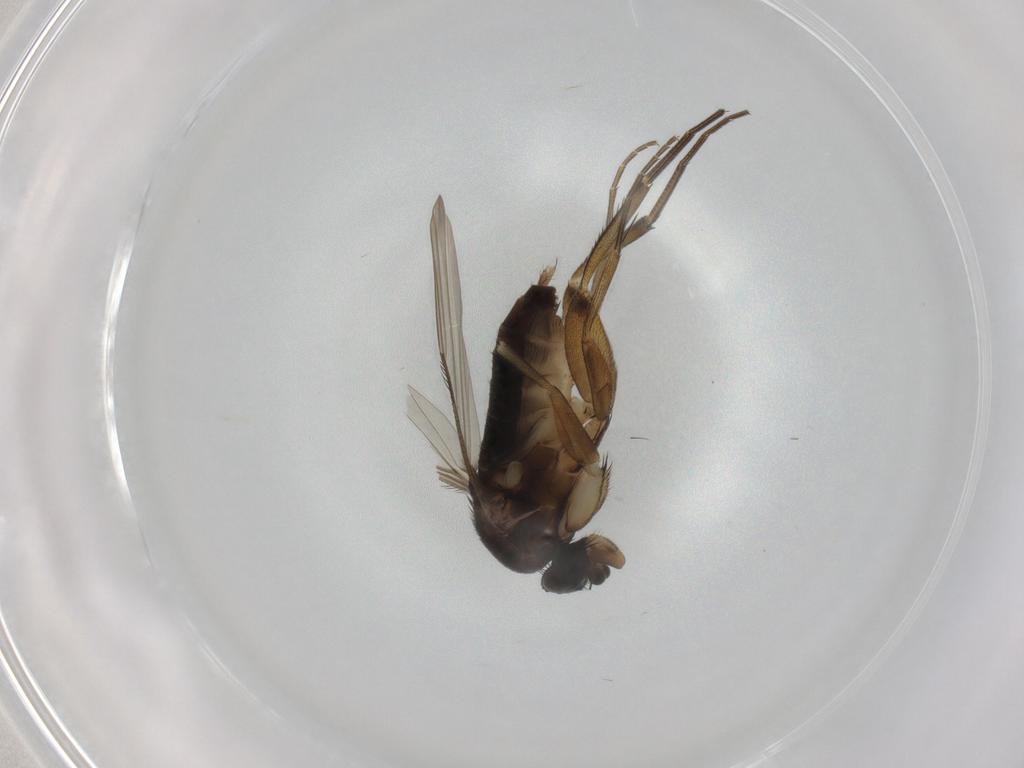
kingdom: Animalia
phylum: Arthropoda
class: Insecta
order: Diptera
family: Phoridae
